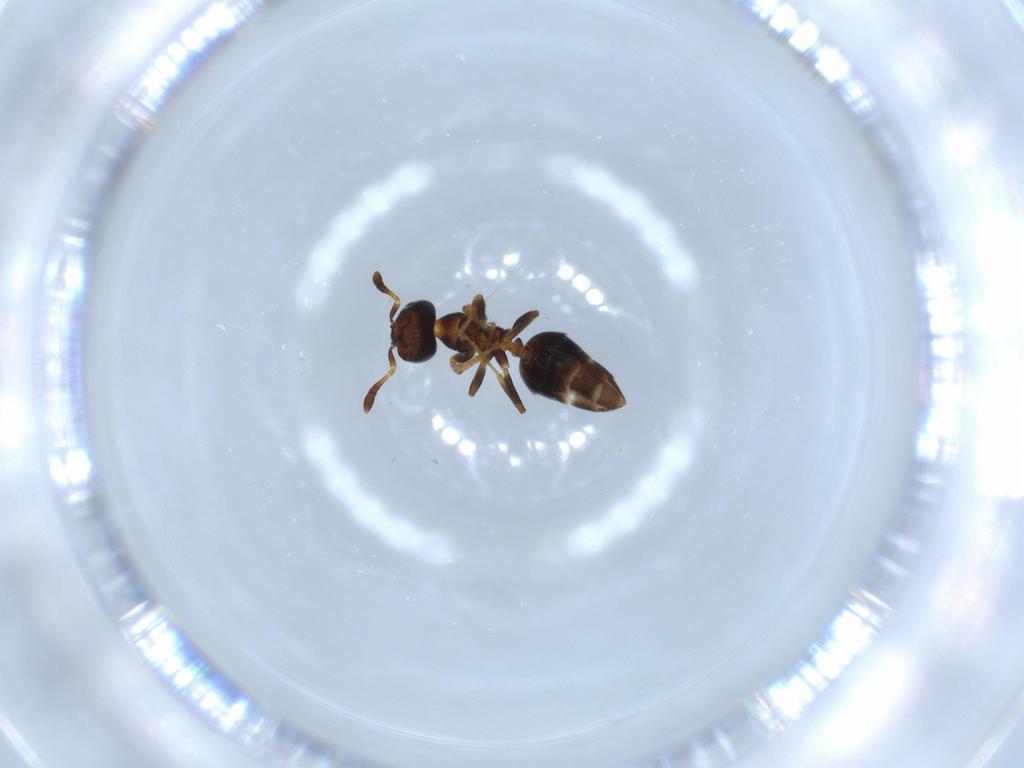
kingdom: Animalia
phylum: Arthropoda
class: Insecta
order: Hymenoptera
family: Formicidae
